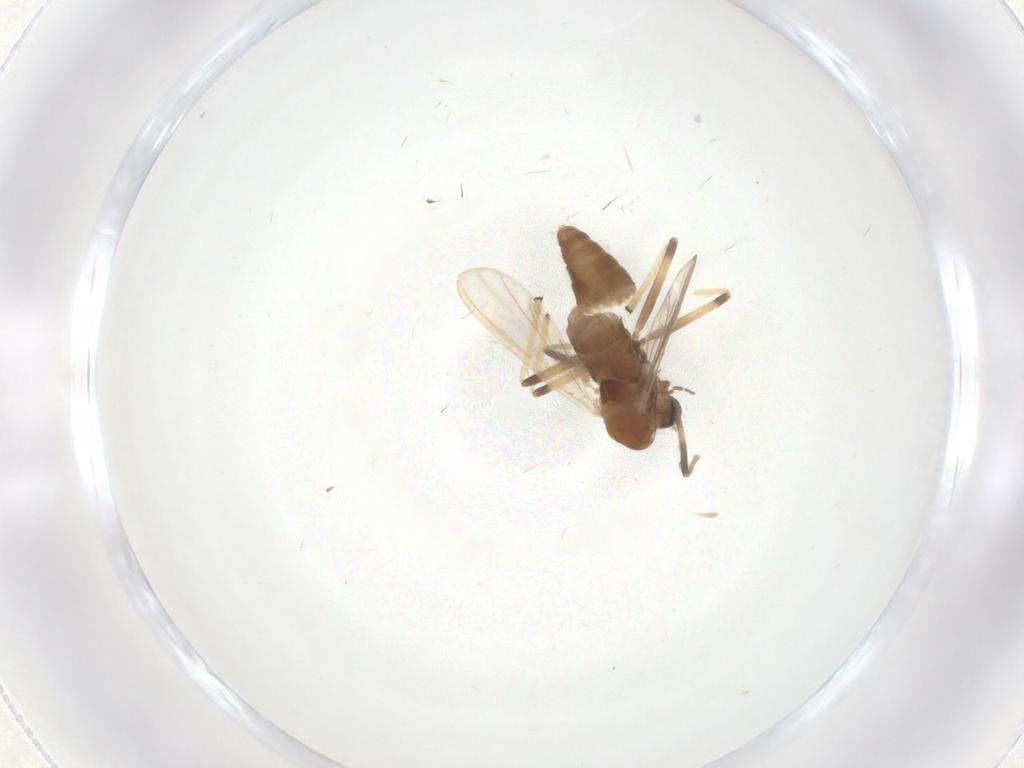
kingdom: Animalia
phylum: Arthropoda
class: Insecta
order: Diptera
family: Chironomidae
